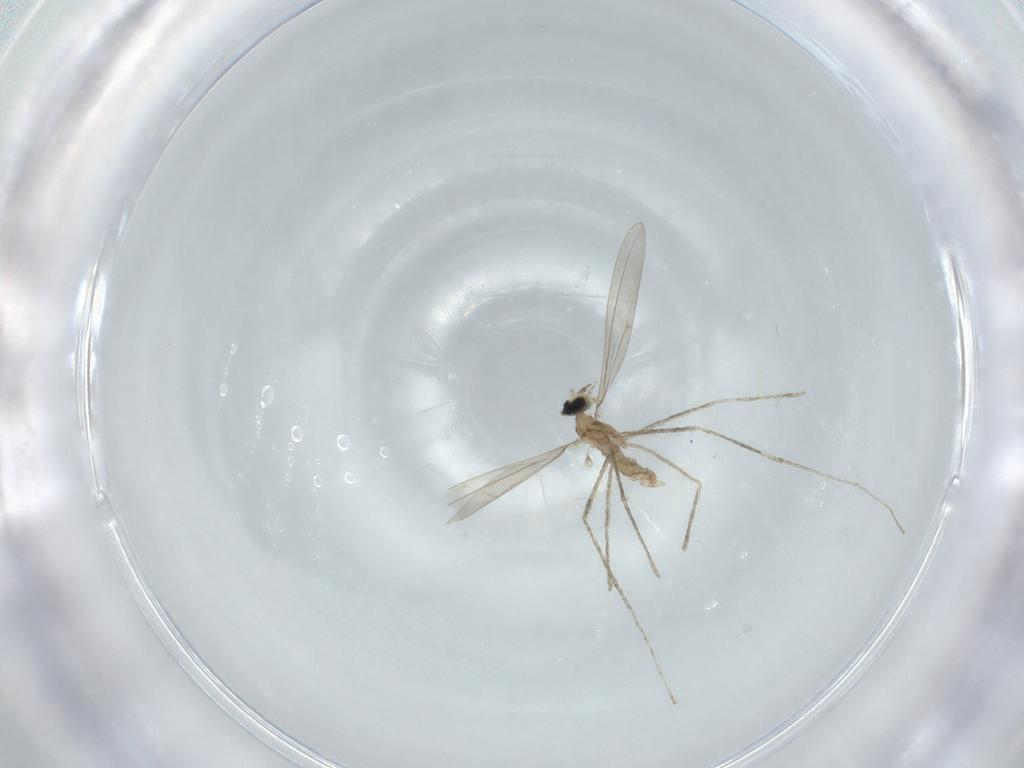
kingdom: Animalia
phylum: Arthropoda
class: Insecta
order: Diptera
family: Cecidomyiidae
